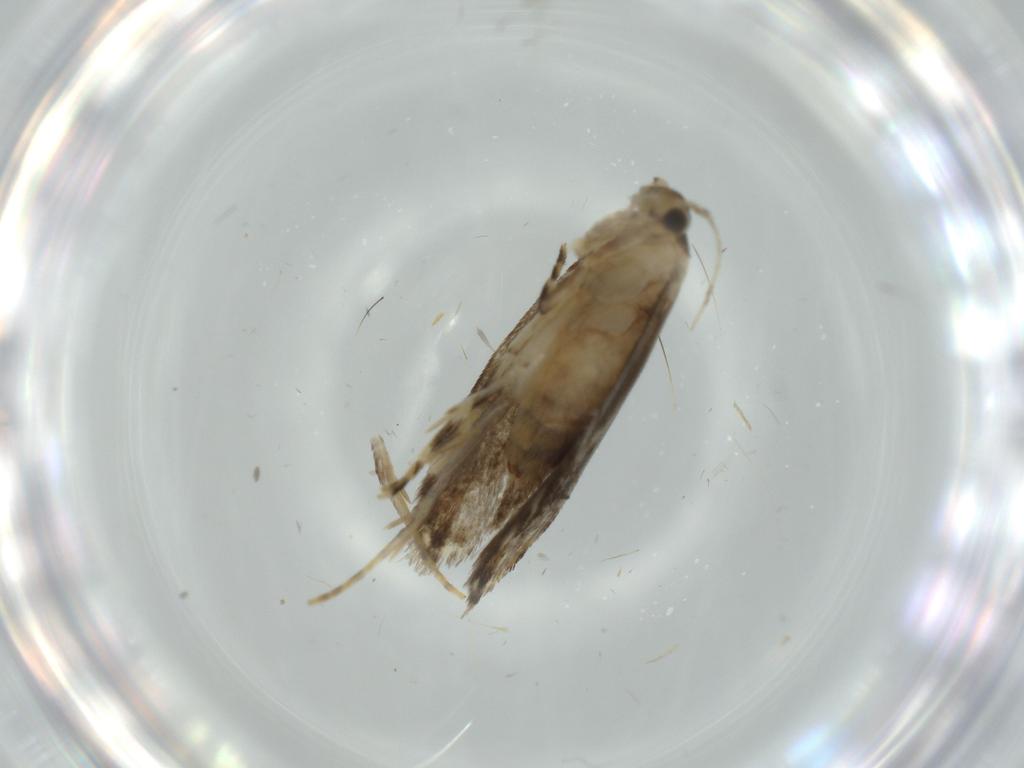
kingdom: Animalia
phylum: Arthropoda
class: Insecta
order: Lepidoptera
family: Tineidae
